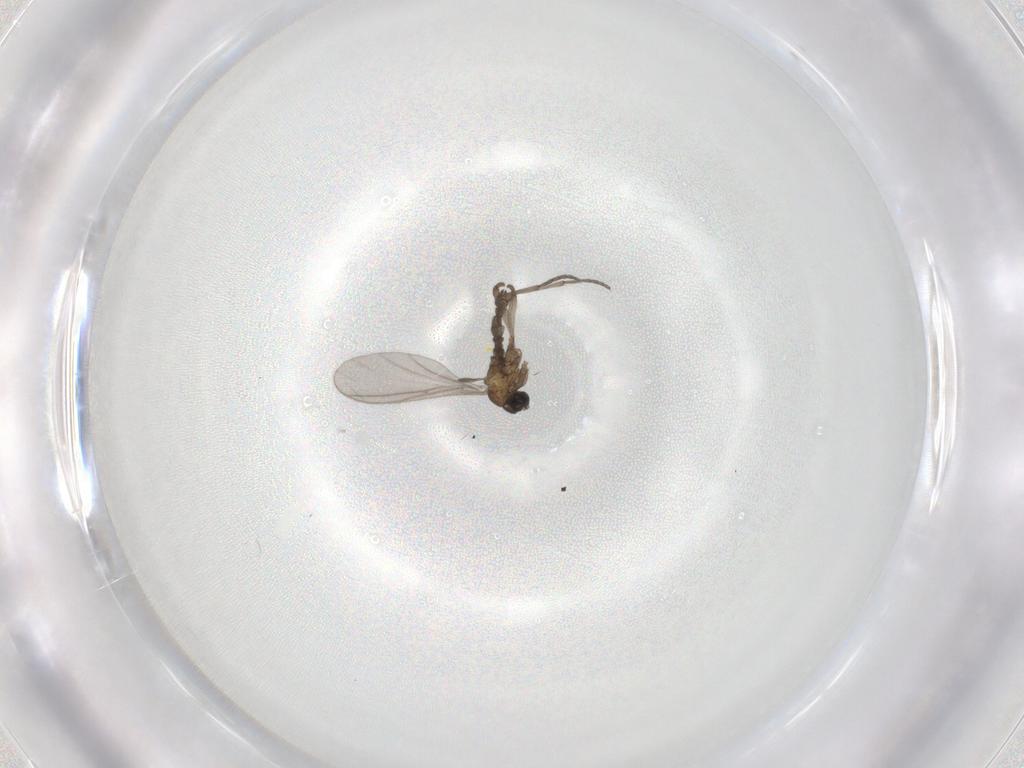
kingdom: Animalia
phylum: Arthropoda
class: Insecta
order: Diptera
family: Sciaridae
